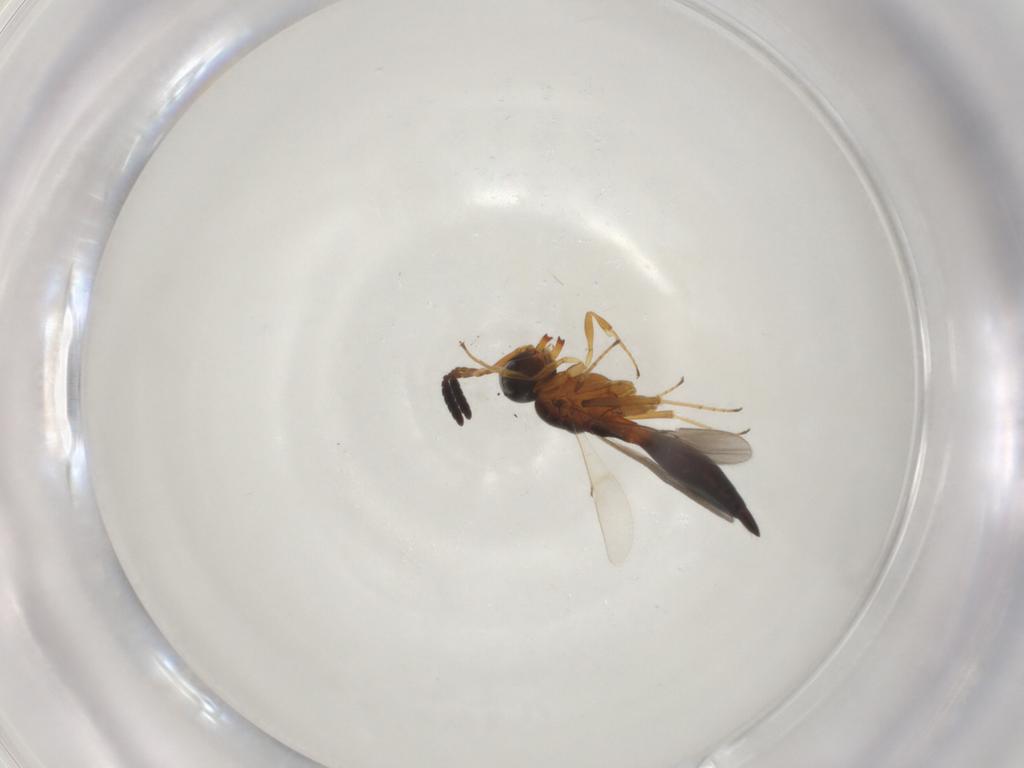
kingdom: Animalia
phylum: Arthropoda
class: Insecta
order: Hymenoptera
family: Scelionidae
